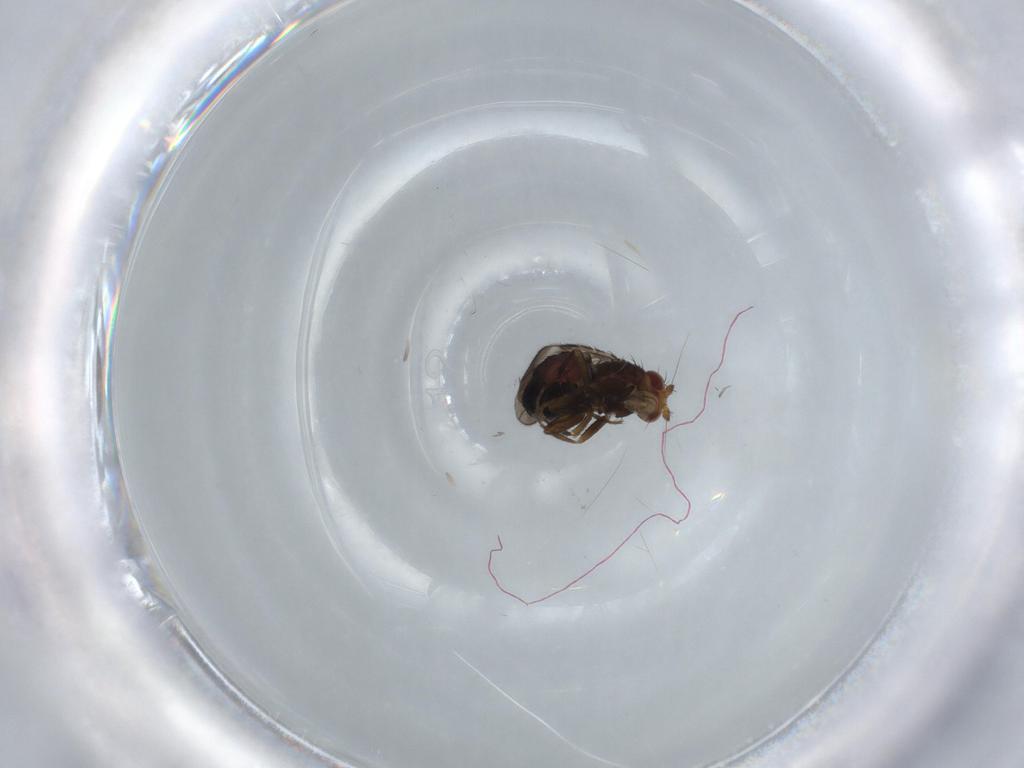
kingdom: Animalia
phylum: Arthropoda
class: Insecta
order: Diptera
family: Sphaeroceridae
